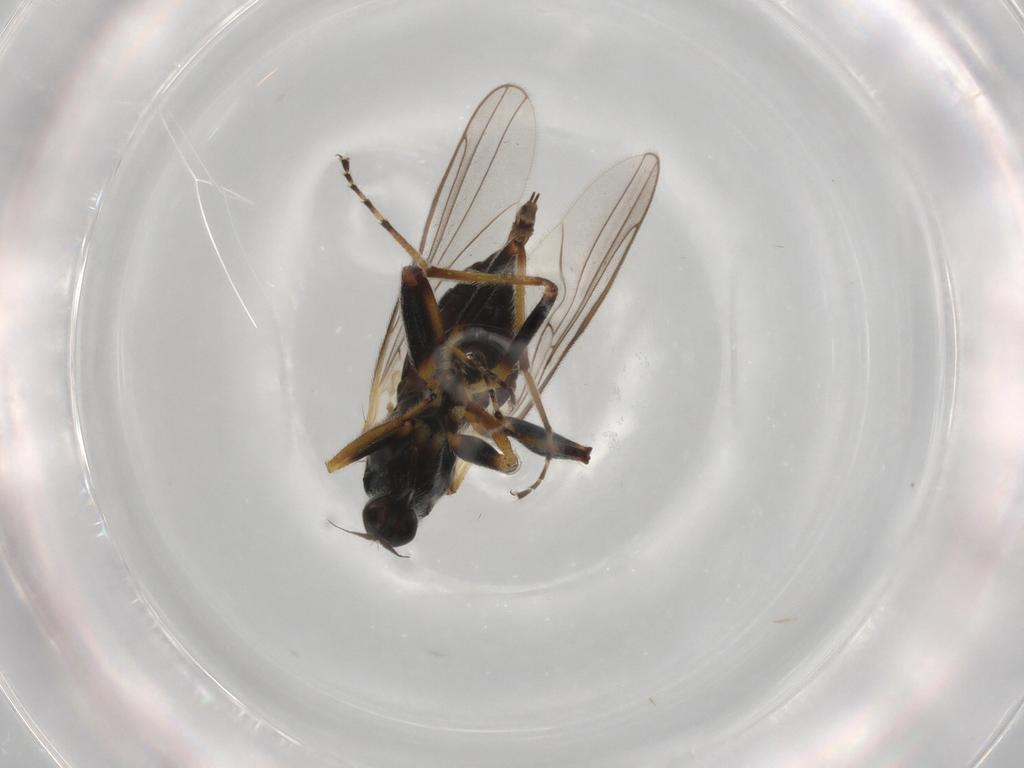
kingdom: Animalia
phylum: Arthropoda
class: Insecta
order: Diptera
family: Hybotidae
